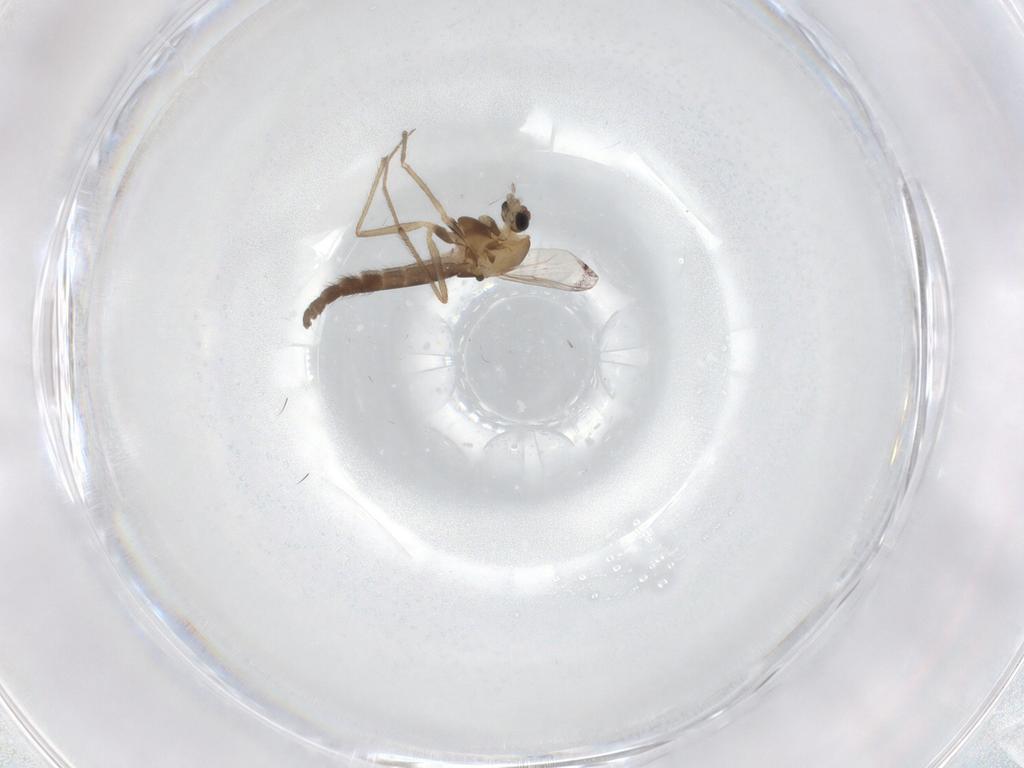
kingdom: Animalia
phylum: Arthropoda
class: Insecta
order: Diptera
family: Chironomidae
